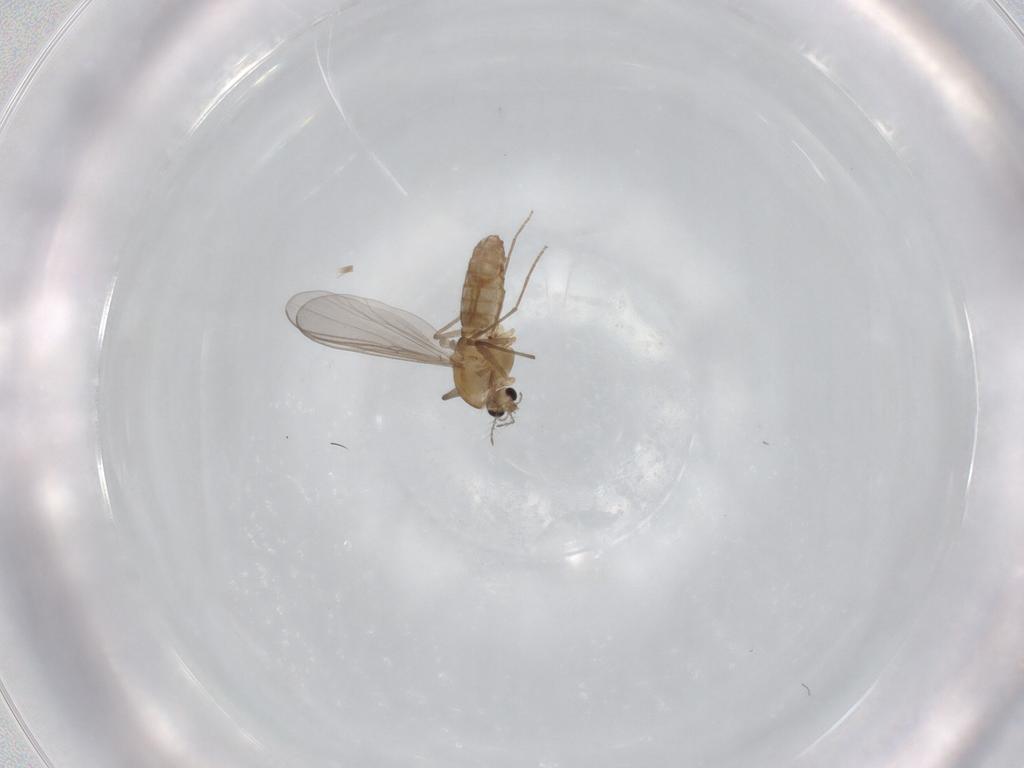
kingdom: Animalia
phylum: Arthropoda
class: Insecta
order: Diptera
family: Chironomidae
